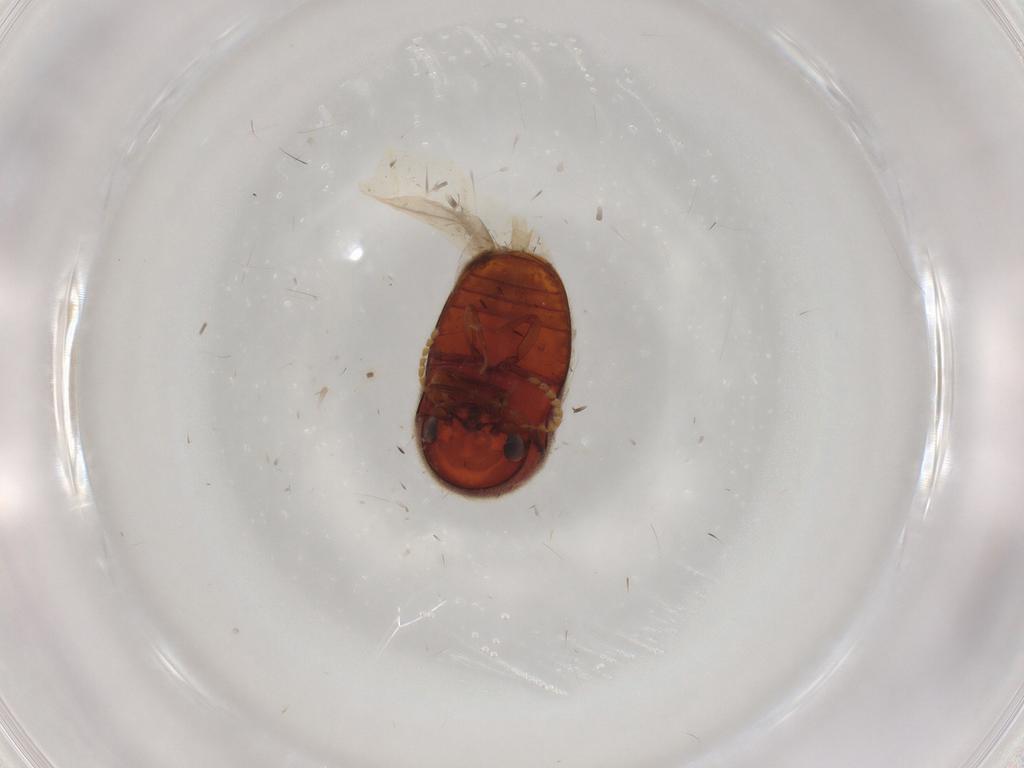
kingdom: Animalia
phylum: Arthropoda
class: Insecta
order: Coleoptera
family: Ptinidae
